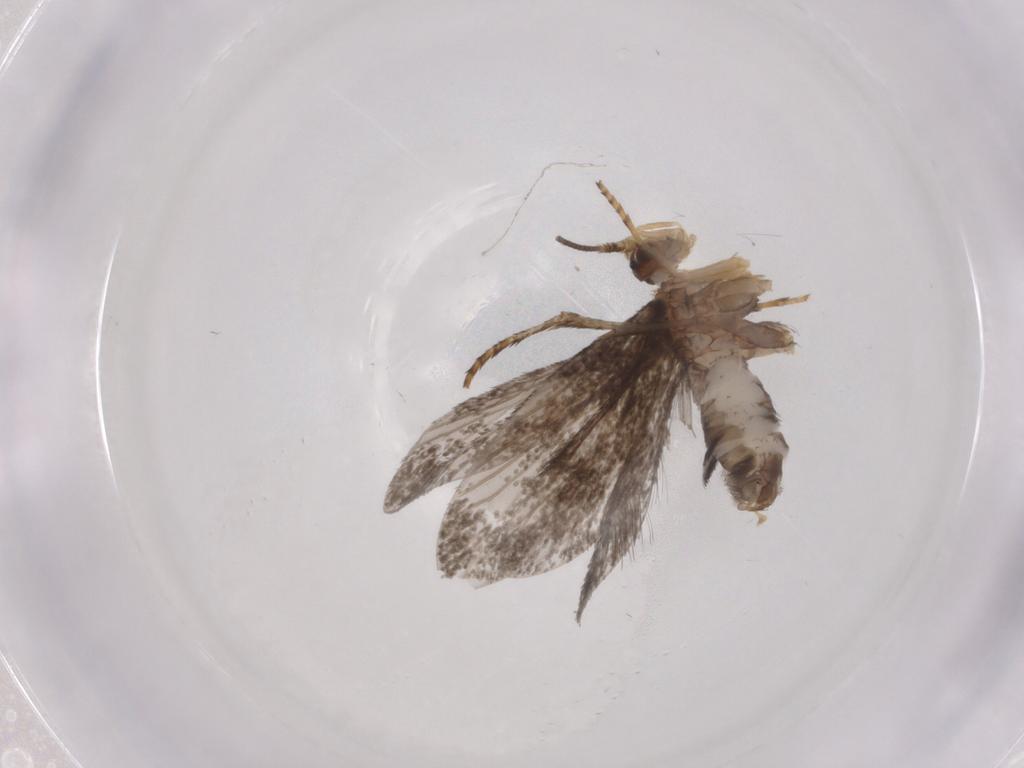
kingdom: Animalia
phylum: Arthropoda
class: Insecta
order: Lepidoptera
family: Micropterigidae
